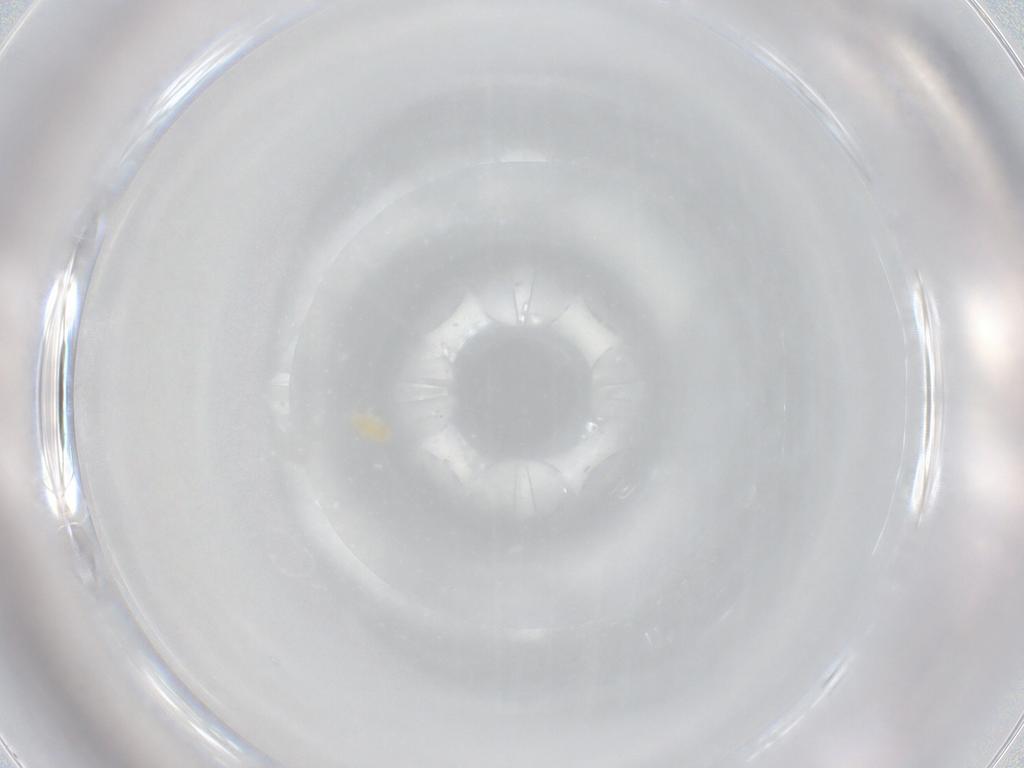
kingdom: Animalia
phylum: Arthropoda
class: Arachnida
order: Trombidiformes
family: Eupodidae
